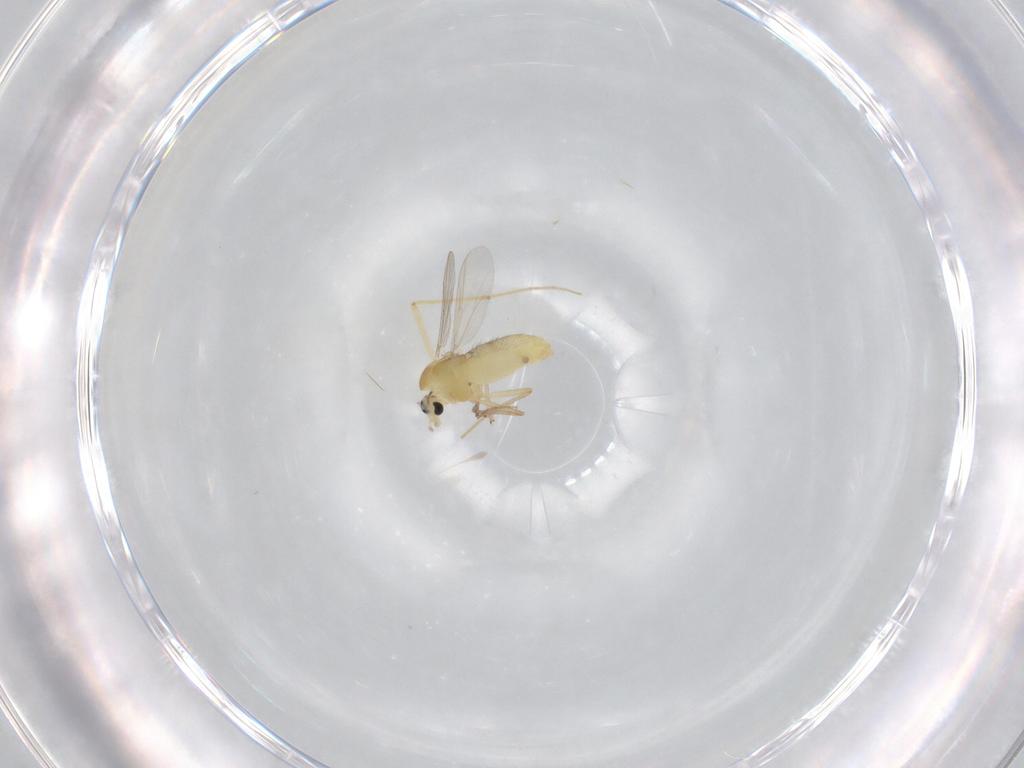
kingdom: Animalia
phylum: Arthropoda
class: Insecta
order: Diptera
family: Chironomidae
